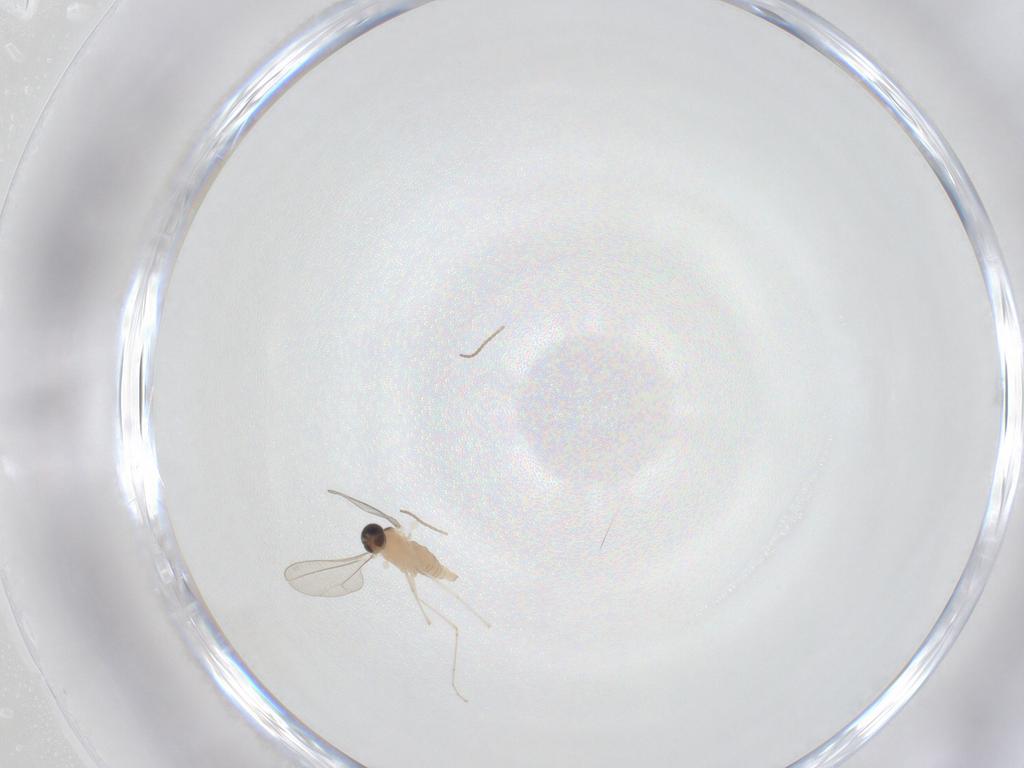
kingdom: Animalia
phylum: Arthropoda
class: Insecta
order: Diptera
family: Cecidomyiidae
